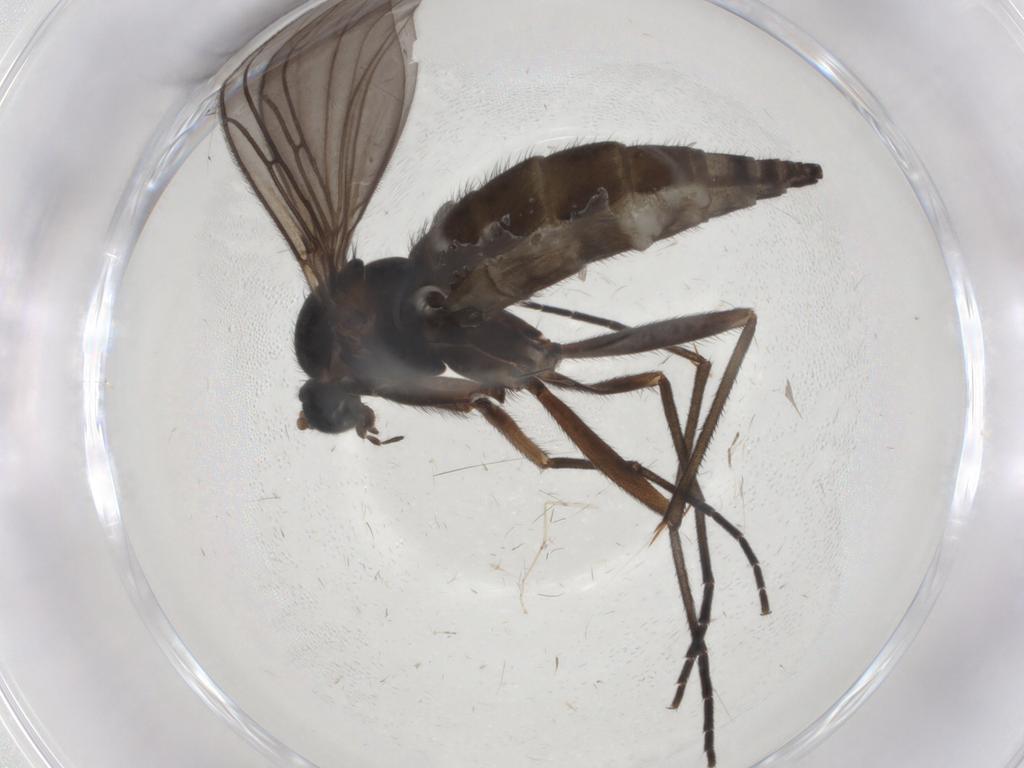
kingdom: Animalia
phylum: Arthropoda
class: Insecta
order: Diptera
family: Sciaridae
